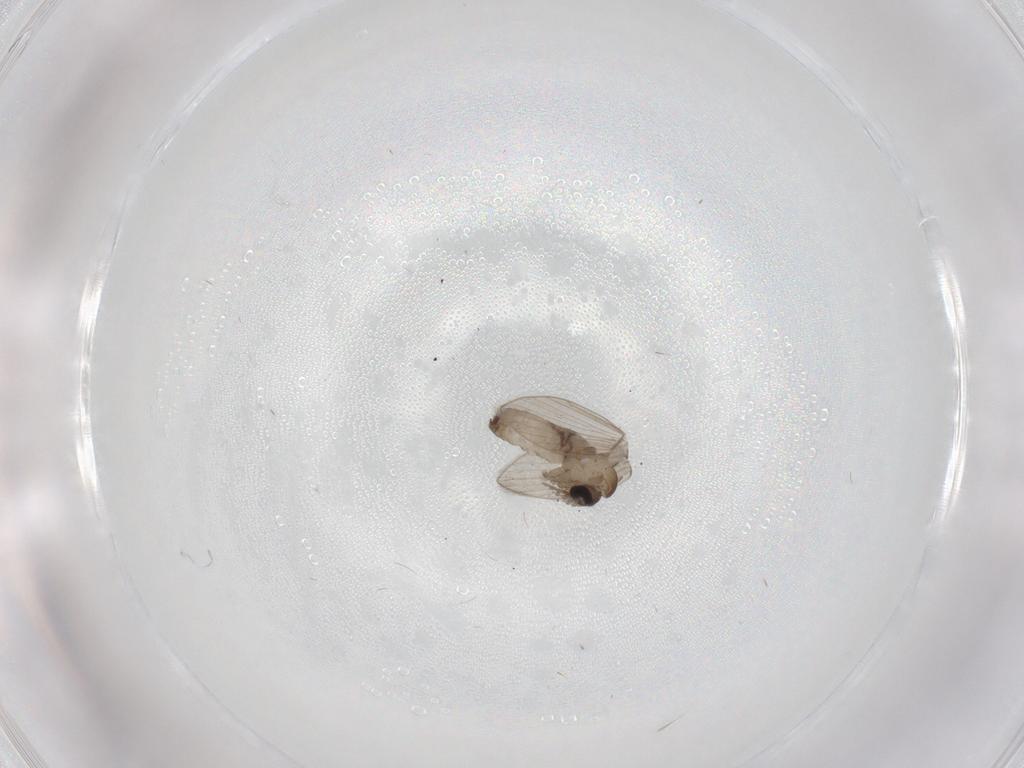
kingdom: Animalia
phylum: Arthropoda
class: Insecta
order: Diptera
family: Psychodidae
